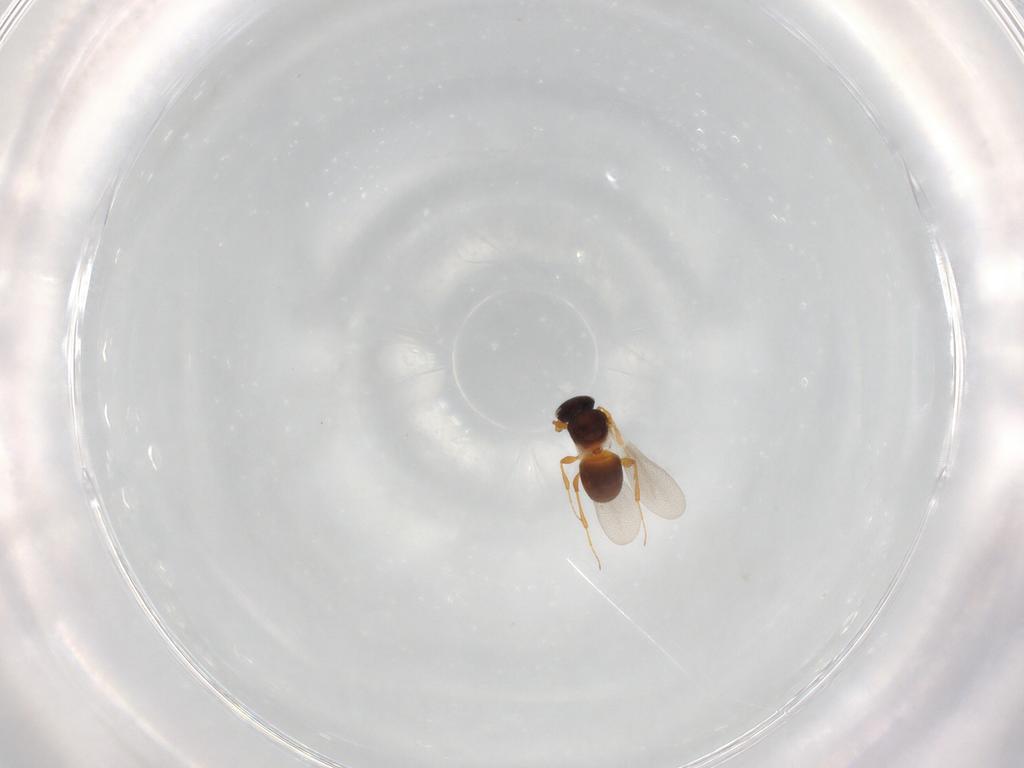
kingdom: Animalia
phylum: Arthropoda
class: Insecta
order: Hymenoptera
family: Platygastridae
